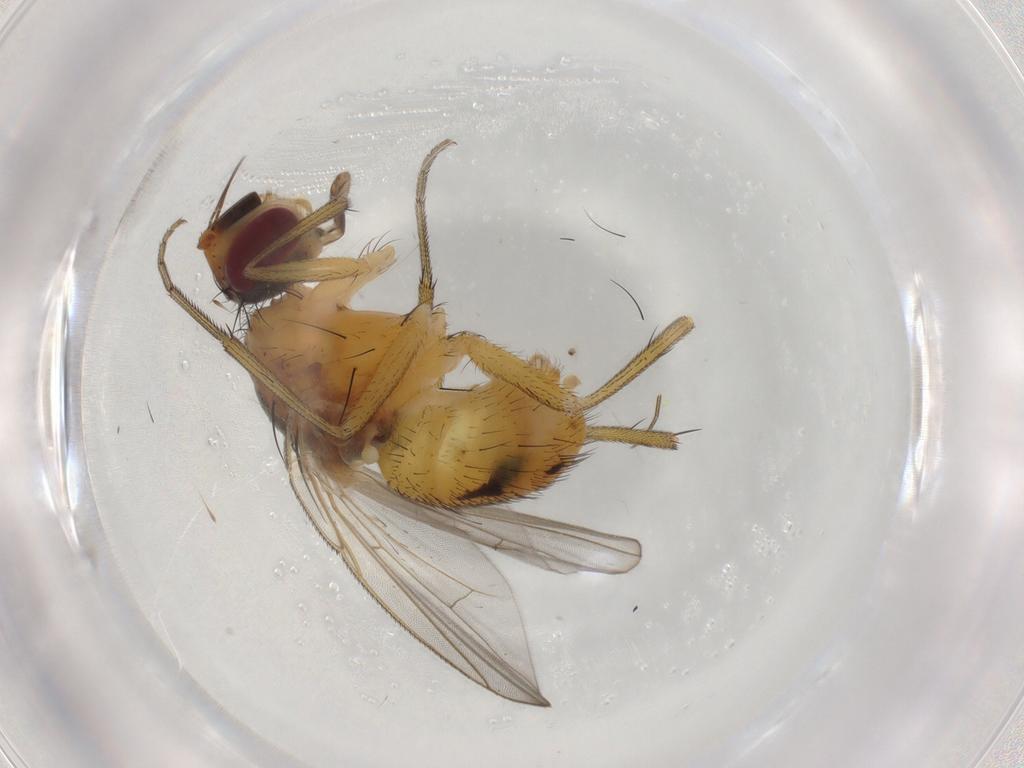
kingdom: Animalia
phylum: Arthropoda
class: Insecta
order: Diptera
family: Muscidae
